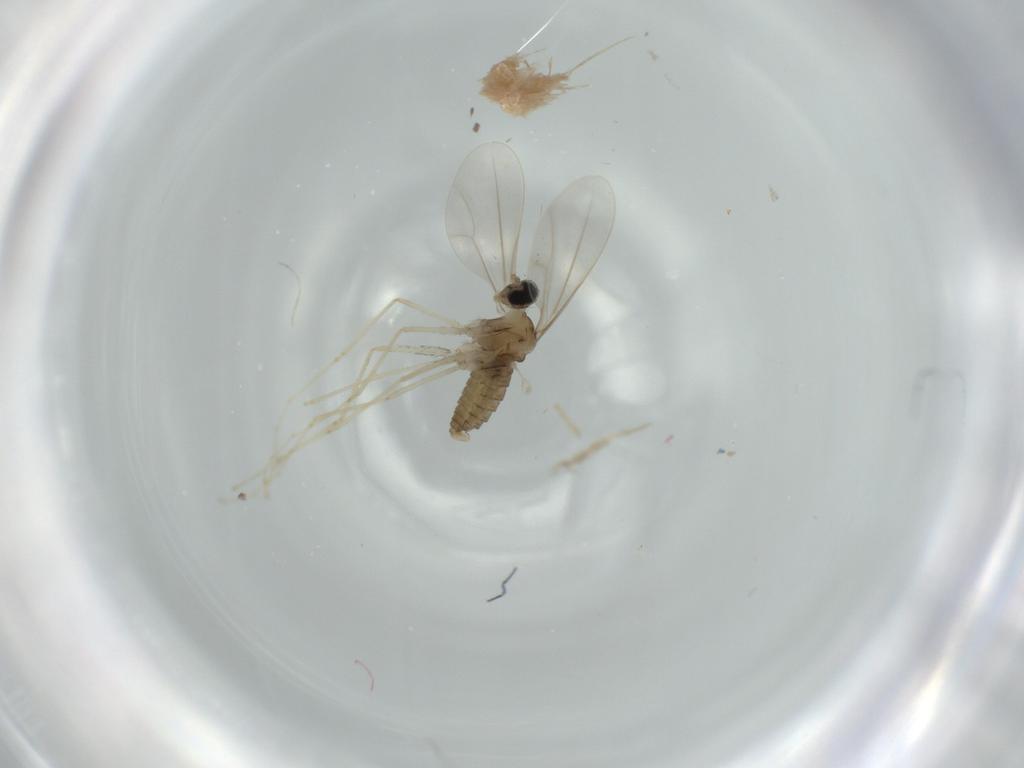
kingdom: Animalia
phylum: Arthropoda
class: Insecta
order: Diptera
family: Cecidomyiidae
